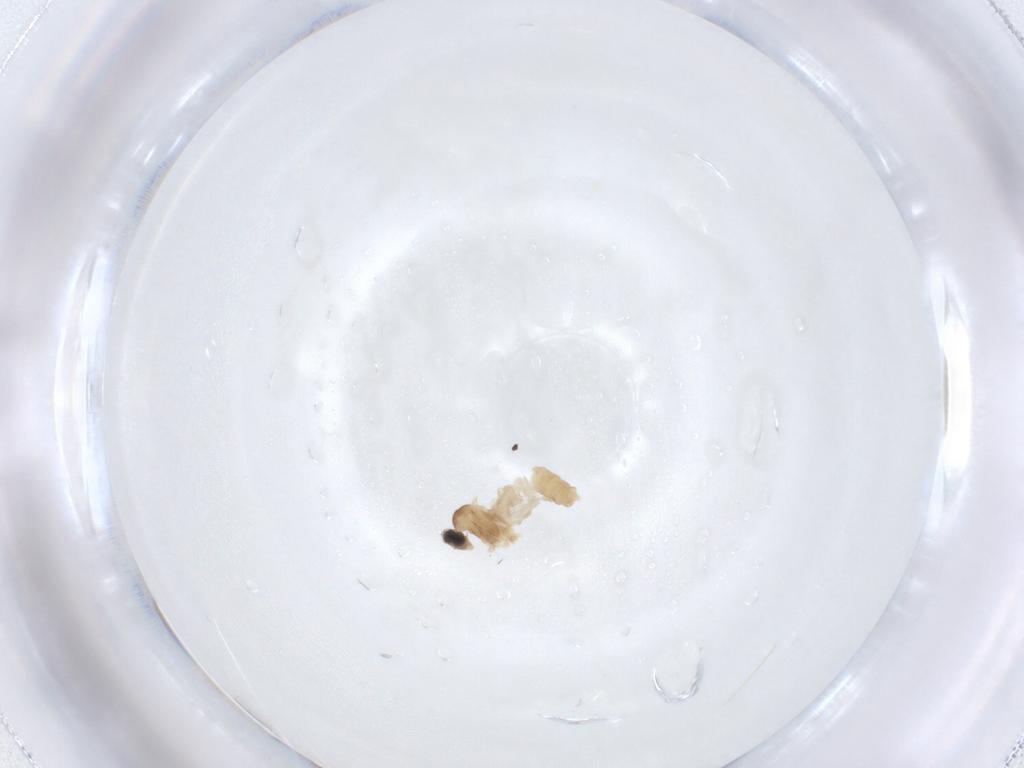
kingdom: Animalia
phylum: Arthropoda
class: Insecta
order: Diptera
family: Cecidomyiidae
